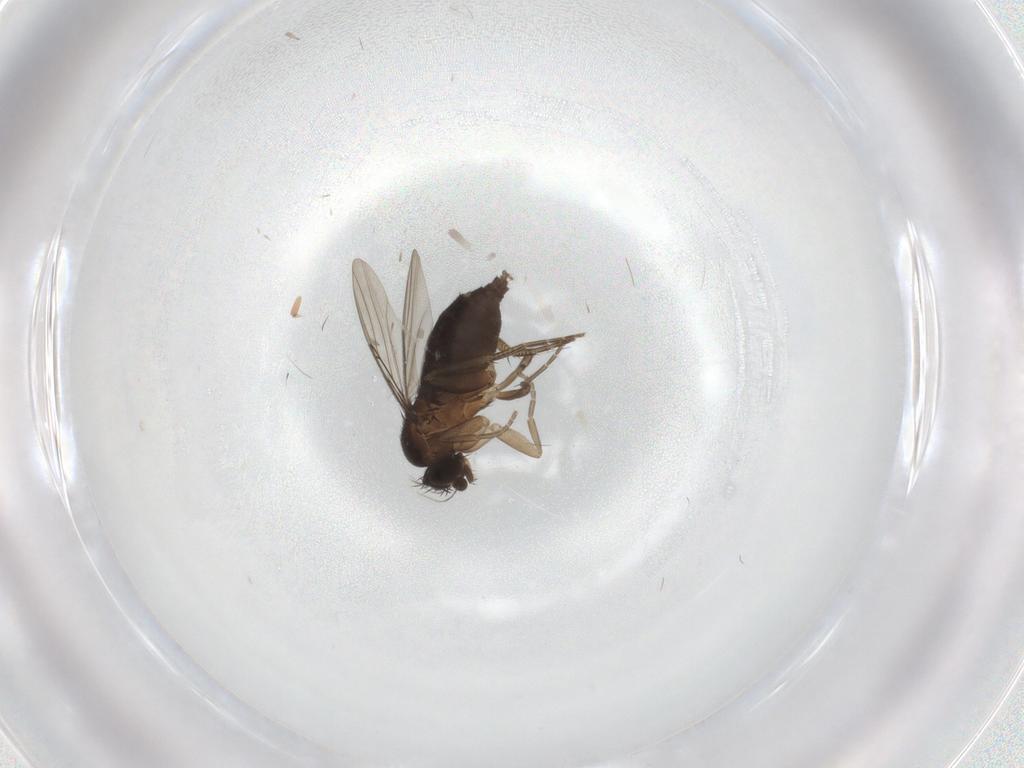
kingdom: Animalia
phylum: Arthropoda
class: Insecta
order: Diptera
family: Phoridae
